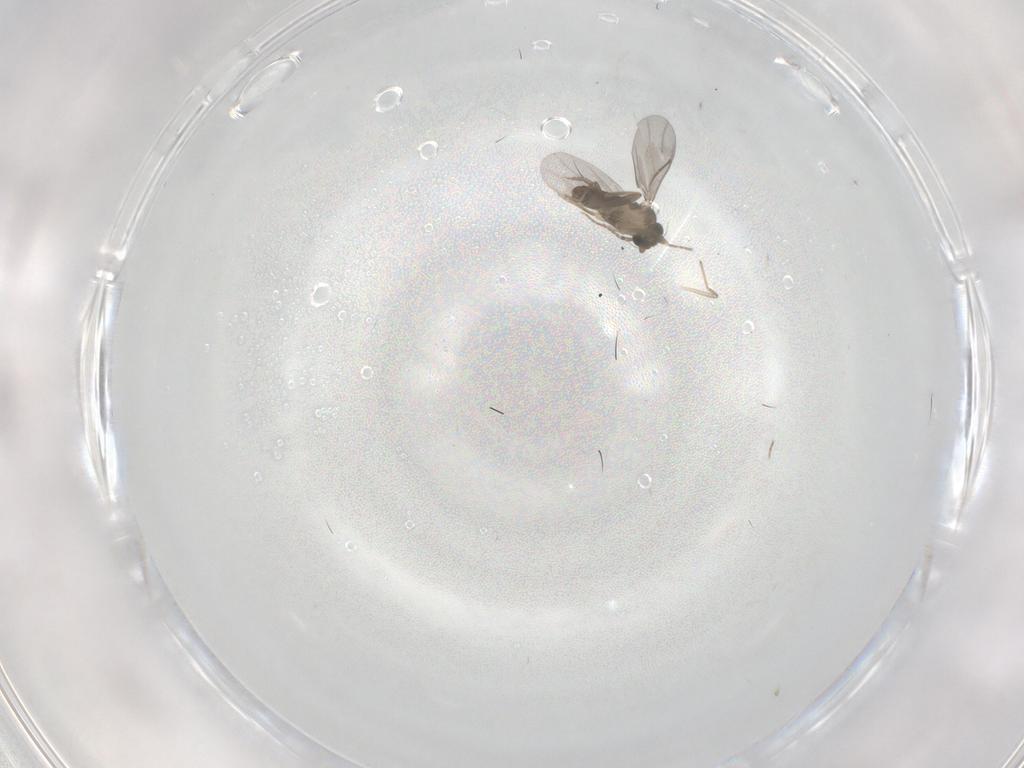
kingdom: Animalia
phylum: Arthropoda
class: Insecta
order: Diptera
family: Chironomidae
